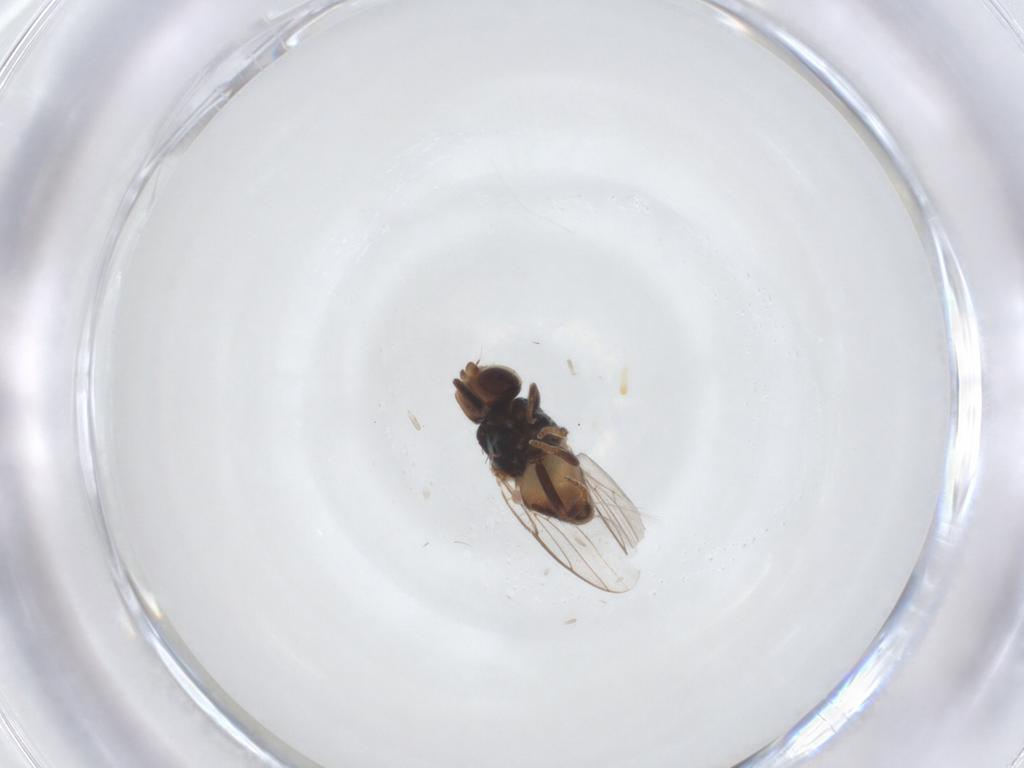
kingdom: Animalia
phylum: Arthropoda
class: Insecta
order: Diptera
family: Chloropidae
